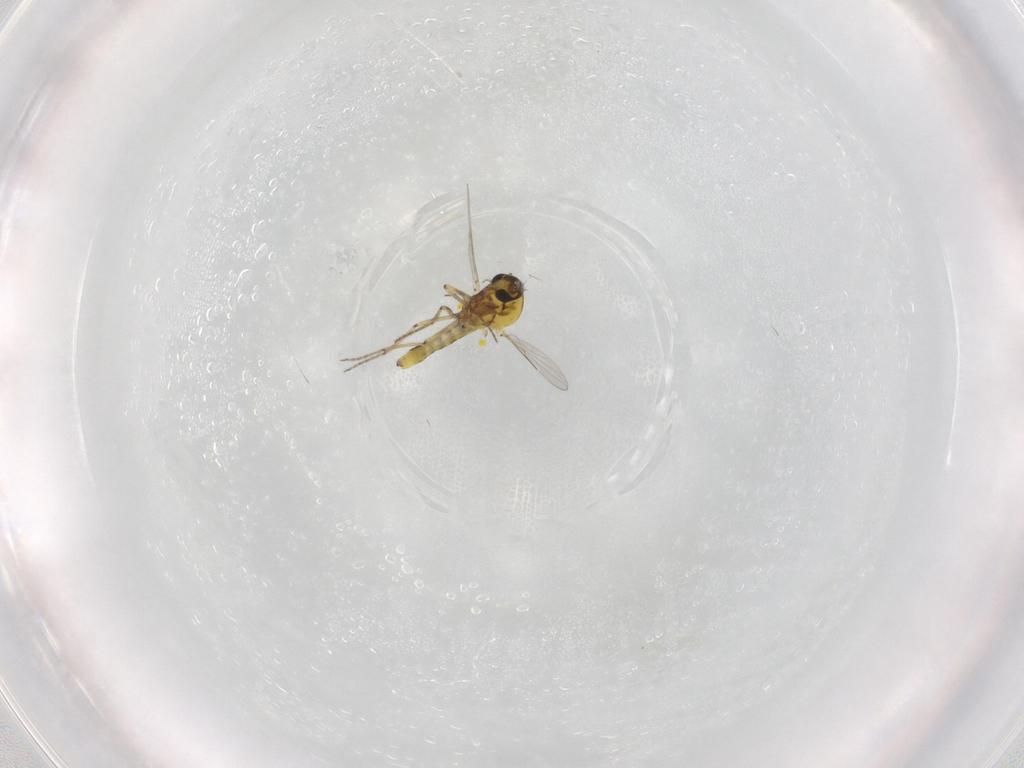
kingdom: Animalia
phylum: Arthropoda
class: Insecta
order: Diptera
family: Ceratopogonidae
